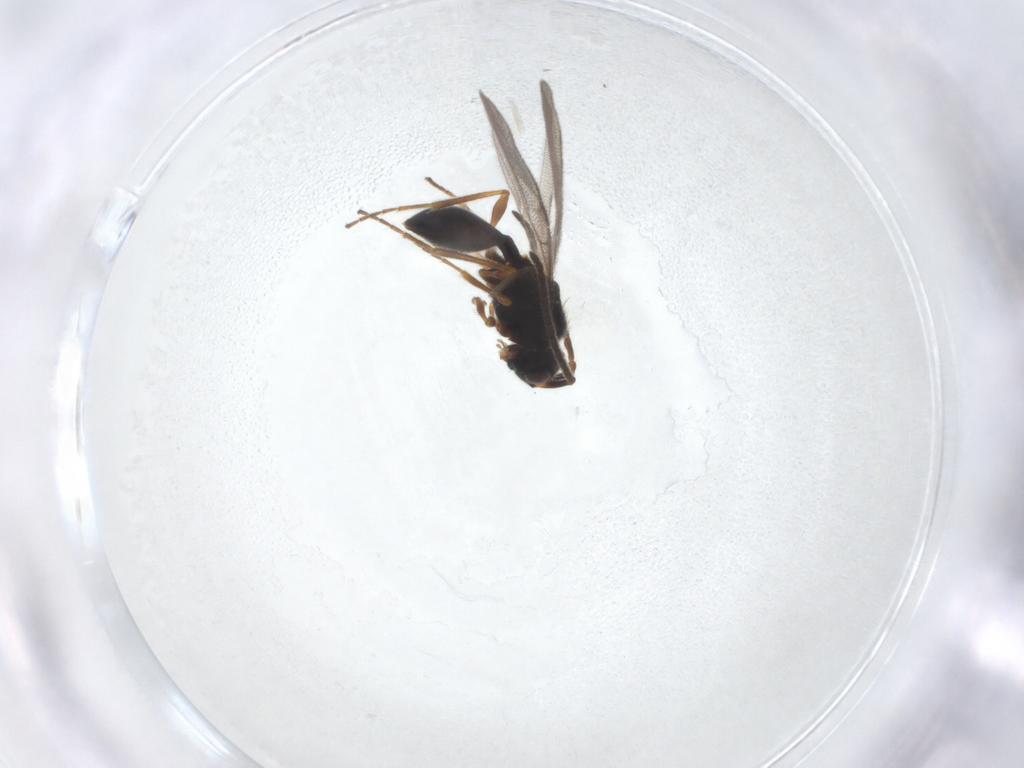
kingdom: Animalia
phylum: Arthropoda
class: Insecta
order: Hymenoptera
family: Diapriidae
